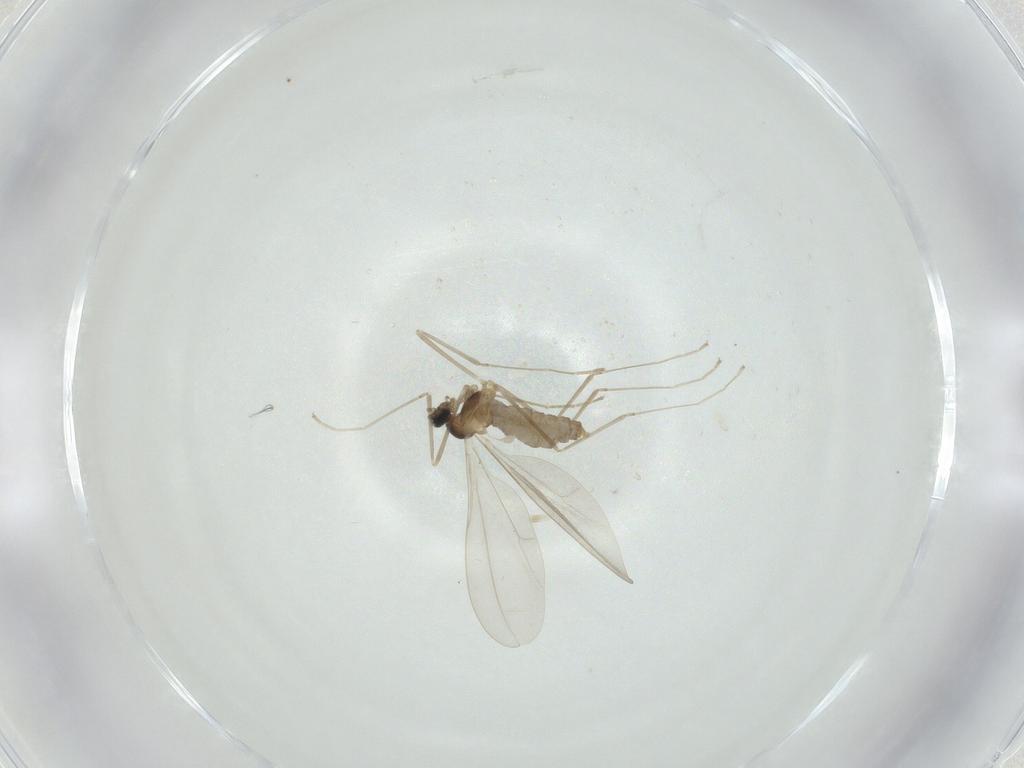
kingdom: Animalia
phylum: Arthropoda
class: Insecta
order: Diptera
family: Cecidomyiidae
